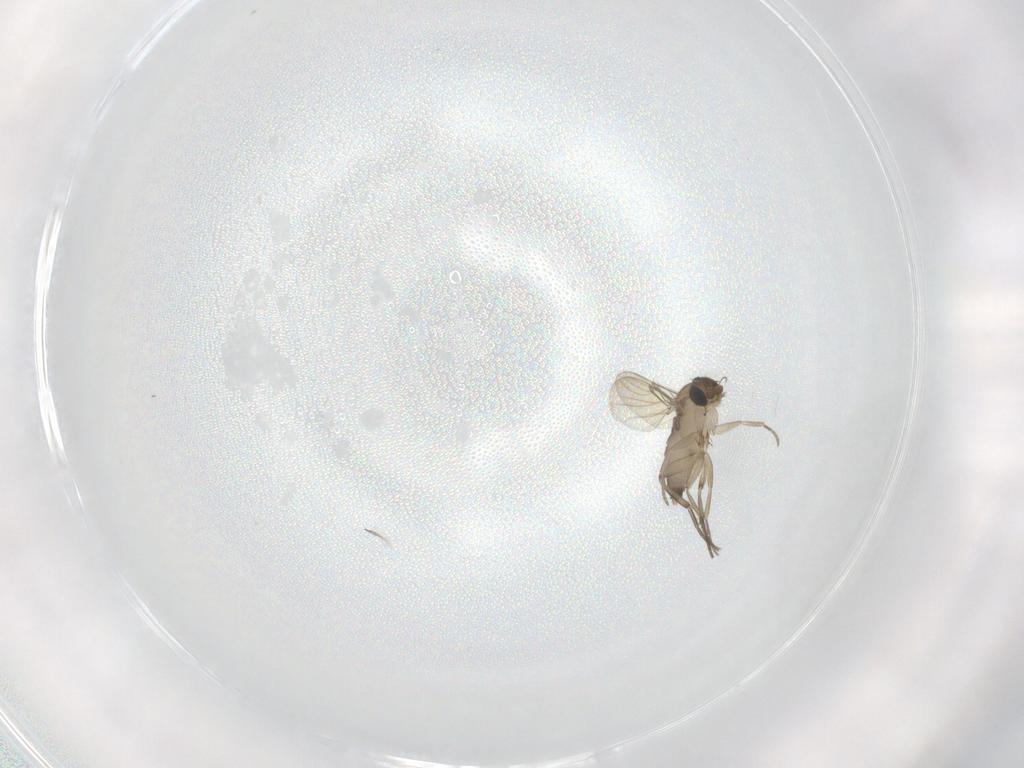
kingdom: Animalia
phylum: Arthropoda
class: Insecta
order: Diptera
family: Phoridae
